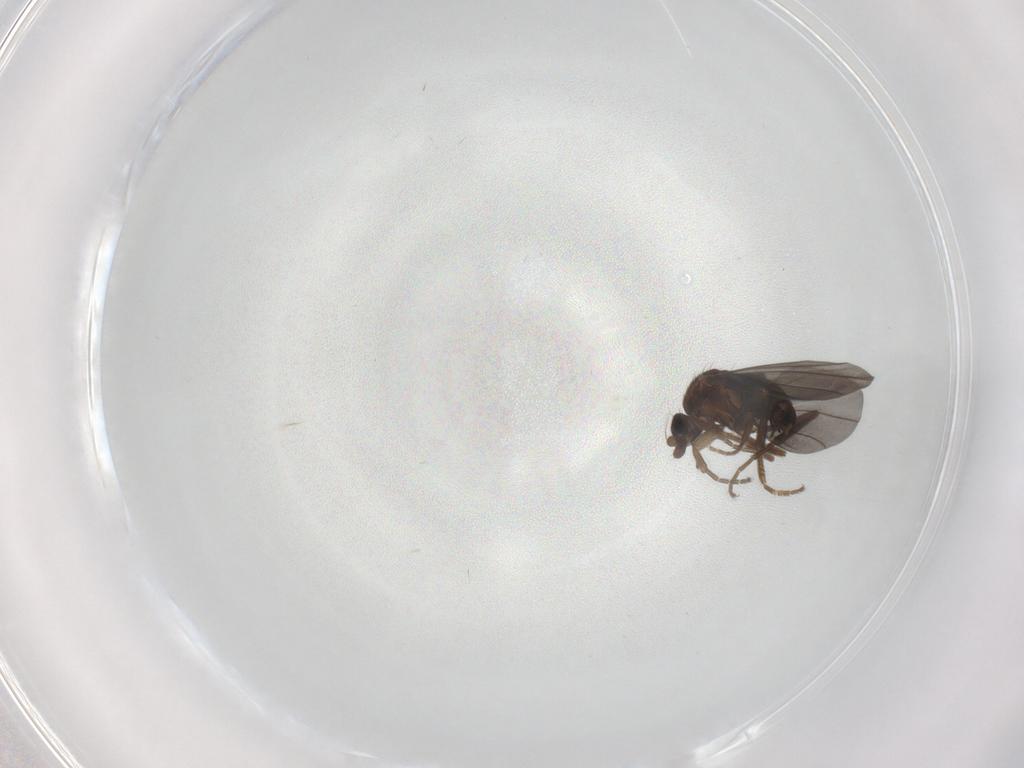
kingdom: Animalia
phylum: Arthropoda
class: Insecta
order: Diptera
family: Phoridae
